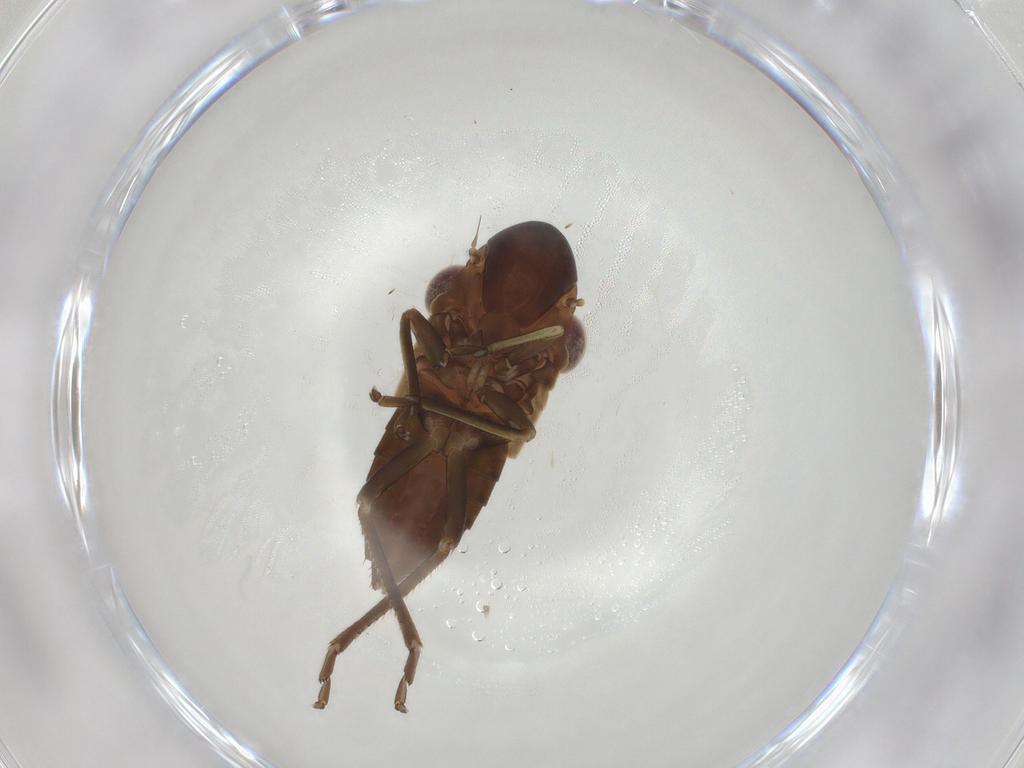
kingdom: Animalia
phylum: Arthropoda
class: Insecta
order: Hemiptera
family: Cicadellidae
